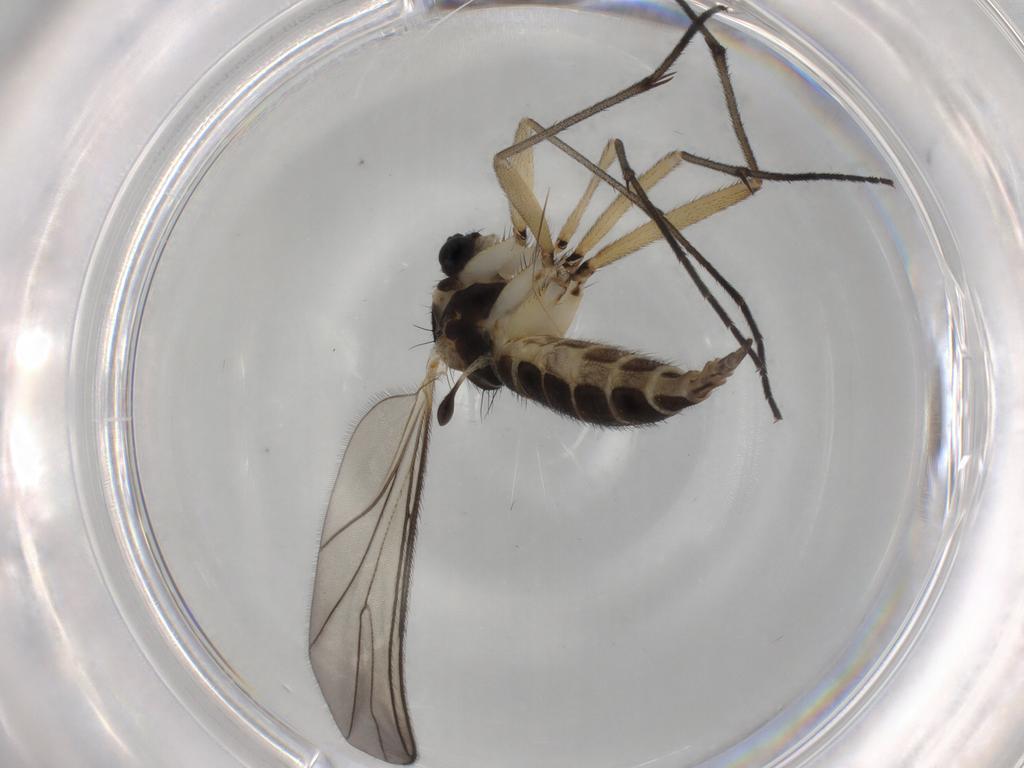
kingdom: Animalia
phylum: Arthropoda
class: Insecta
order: Diptera
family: Sciaridae
